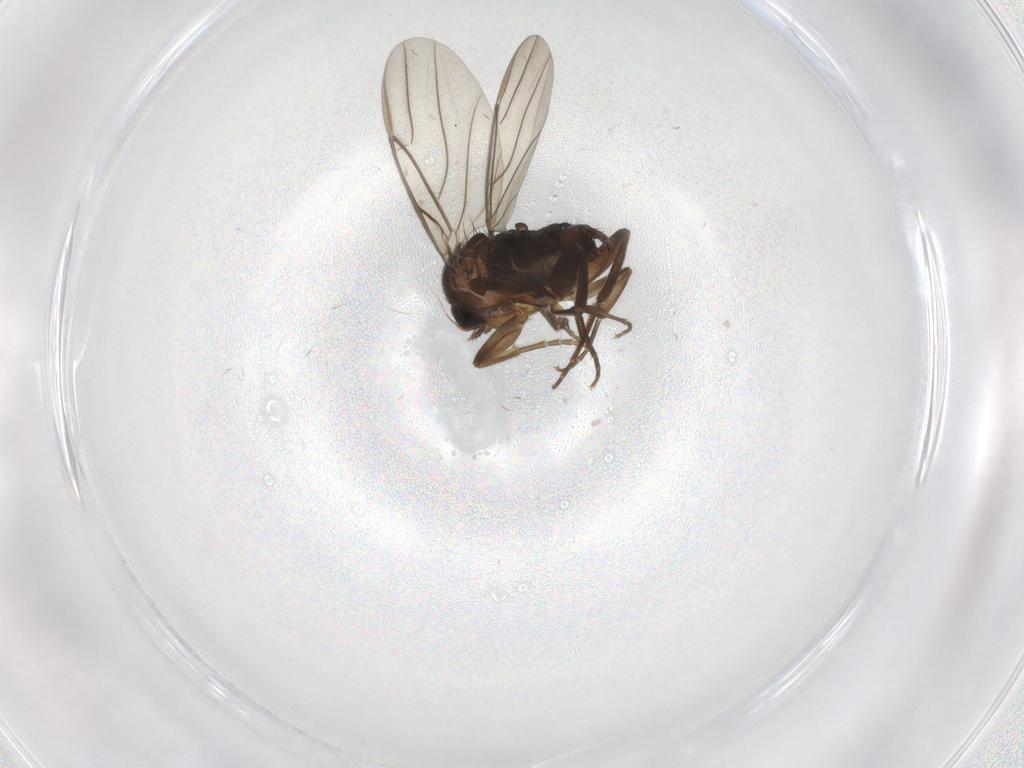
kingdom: Animalia
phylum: Arthropoda
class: Insecta
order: Diptera
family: Phoridae
